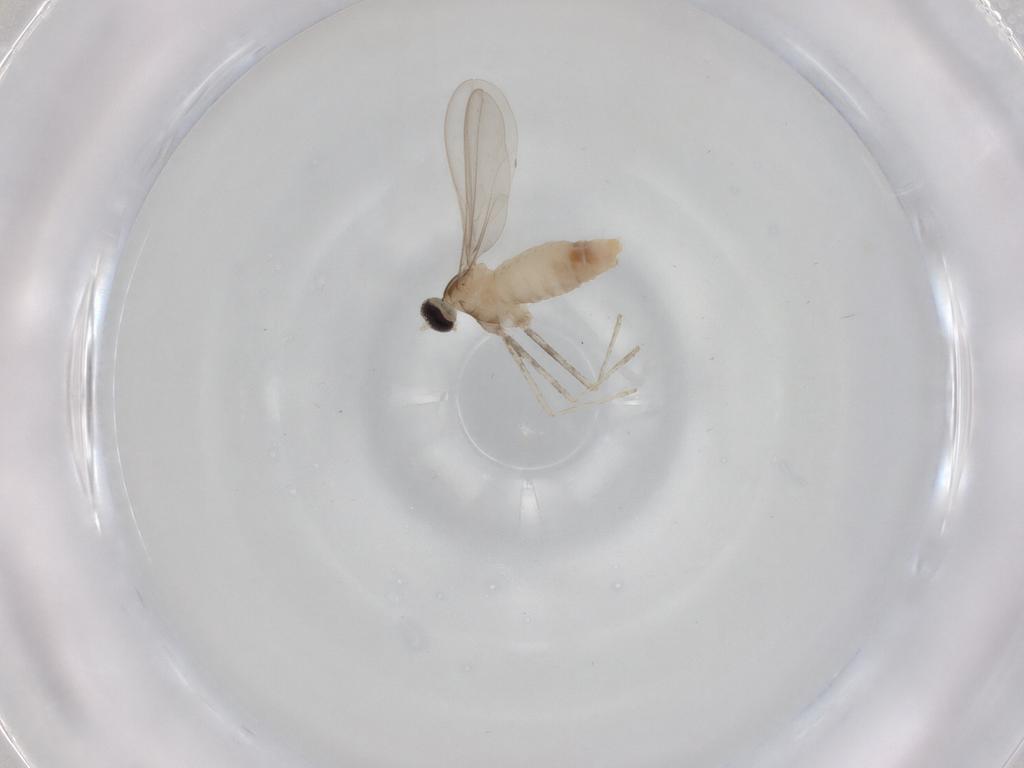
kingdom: Animalia
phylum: Arthropoda
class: Insecta
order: Diptera
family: Cecidomyiidae
